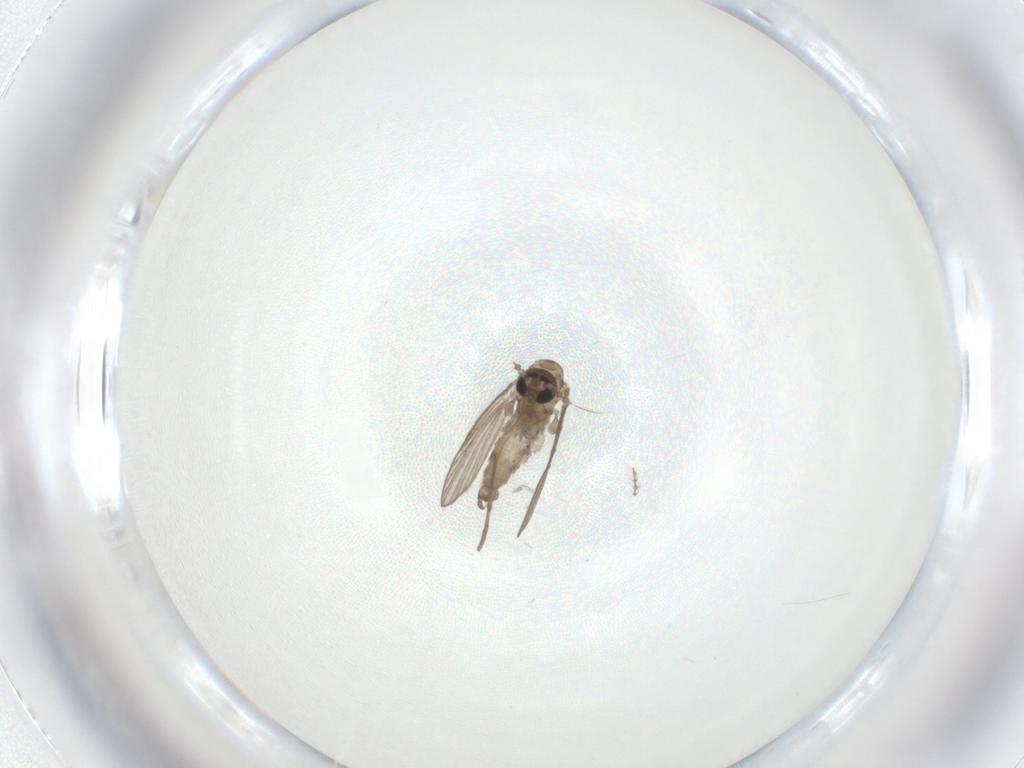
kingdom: Animalia
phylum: Arthropoda
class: Insecta
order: Diptera
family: Psychodidae
